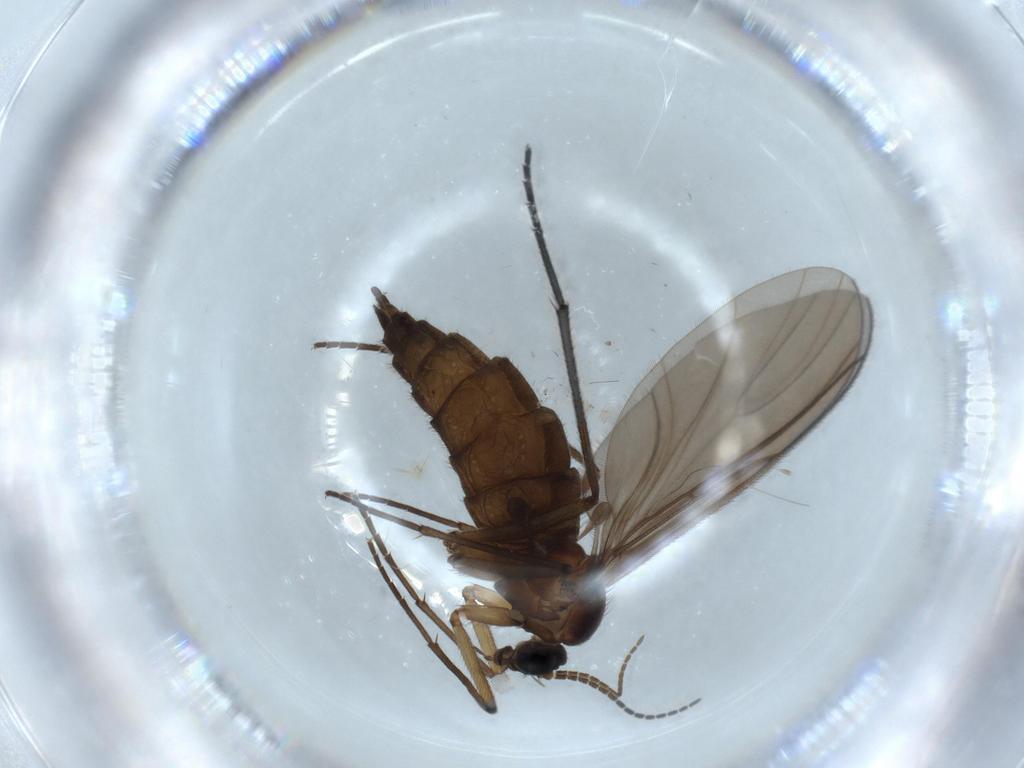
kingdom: Animalia
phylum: Arthropoda
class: Insecta
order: Diptera
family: Sciaridae
